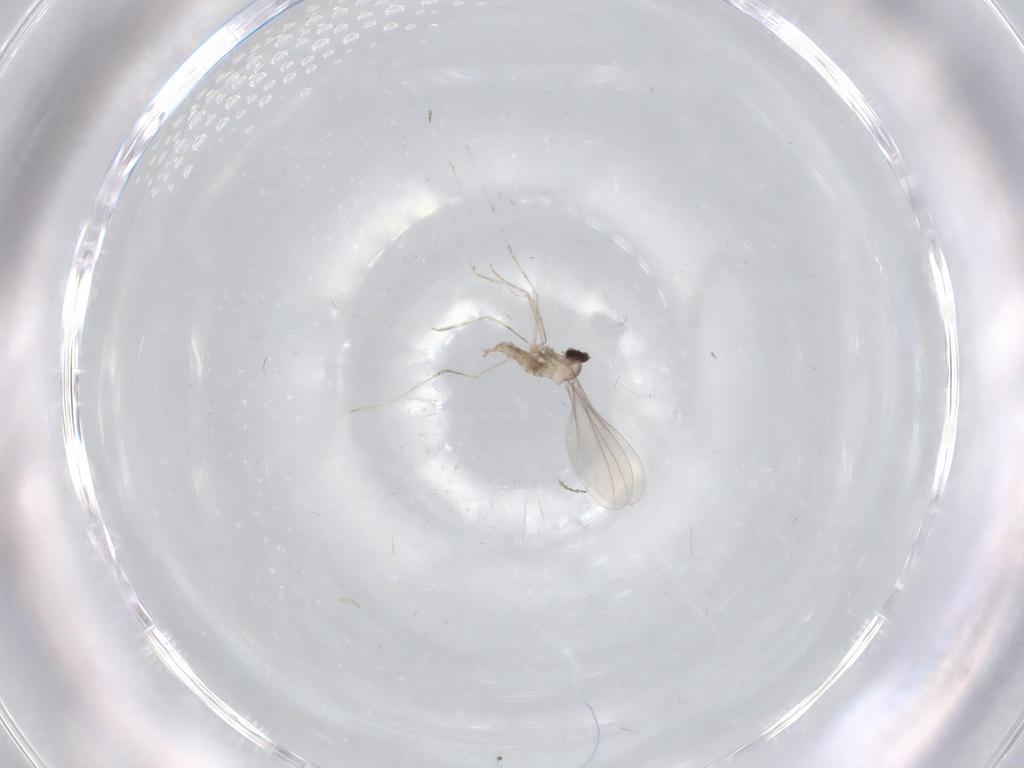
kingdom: Animalia
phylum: Arthropoda
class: Insecta
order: Diptera
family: Cecidomyiidae
